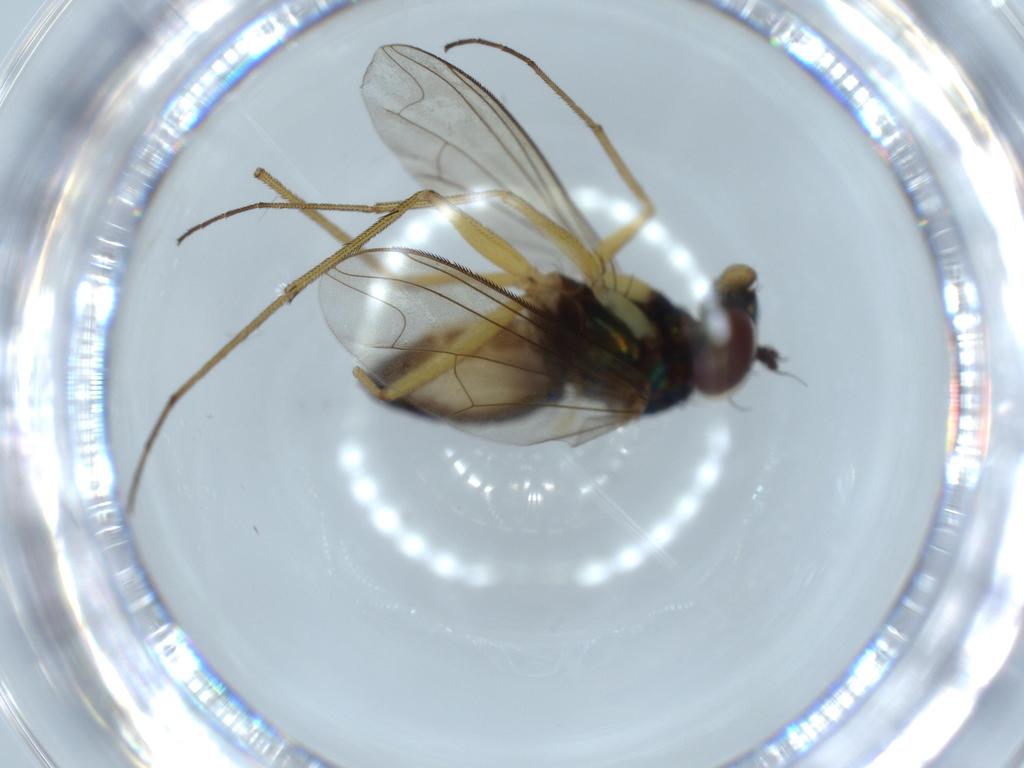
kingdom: Animalia
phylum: Arthropoda
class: Insecta
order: Diptera
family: Dolichopodidae
